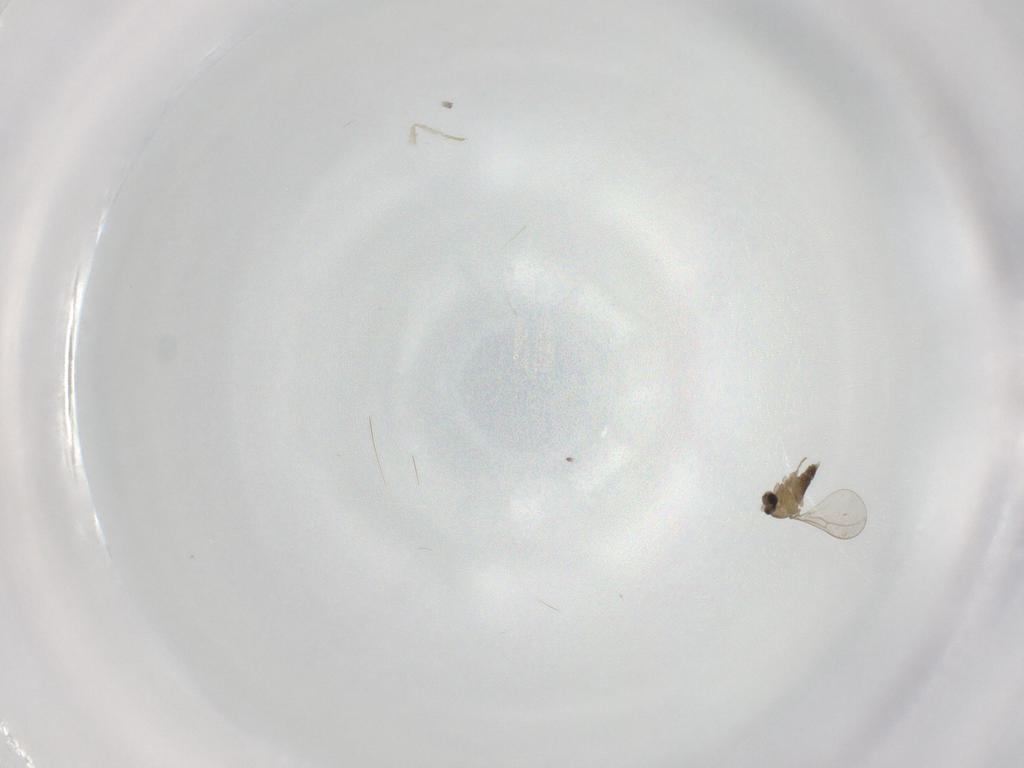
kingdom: Animalia
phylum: Arthropoda
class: Insecta
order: Diptera
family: Cecidomyiidae
